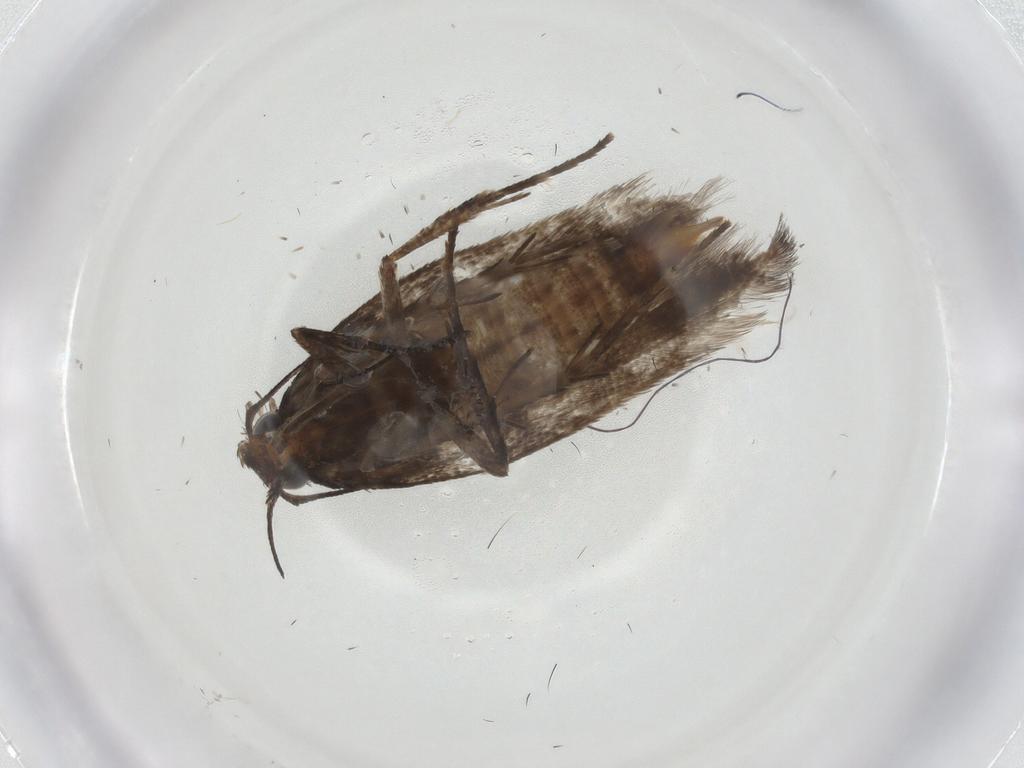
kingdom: Animalia
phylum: Arthropoda
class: Insecta
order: Lepidoptera
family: Gelechiidae
